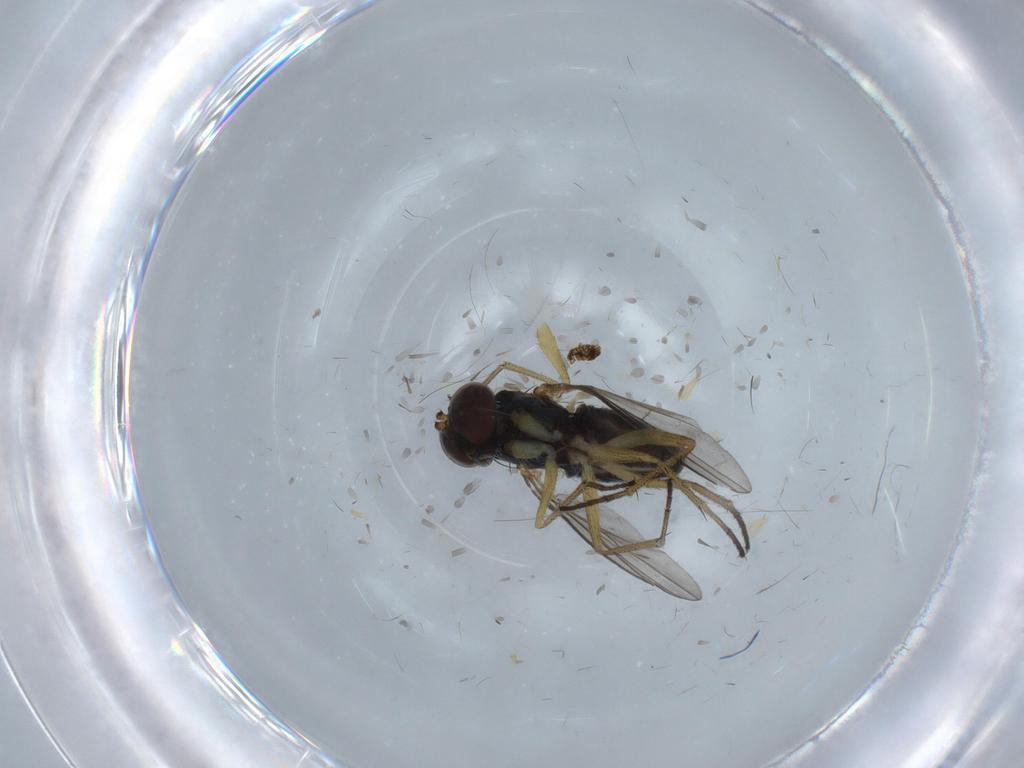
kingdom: Animalia
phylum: Arthropoda
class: Insecta
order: Diptera
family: Dolichopodidae
